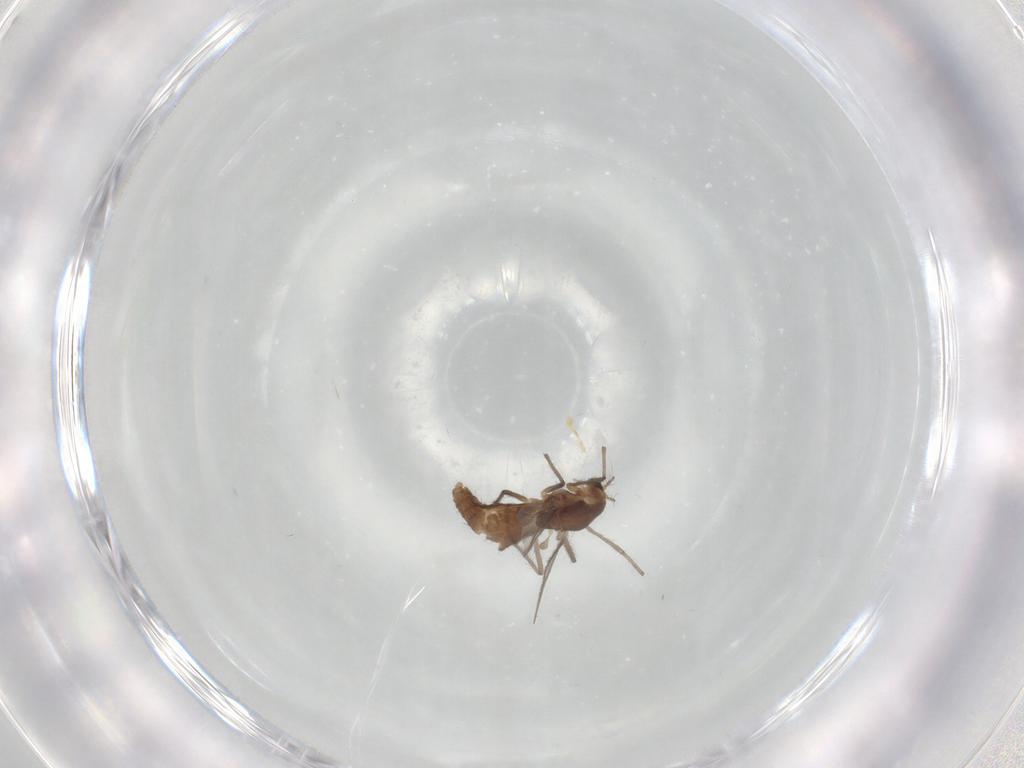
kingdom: Animalia
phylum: Arthropoda
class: Insecta
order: Diptera
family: Chironomidae
